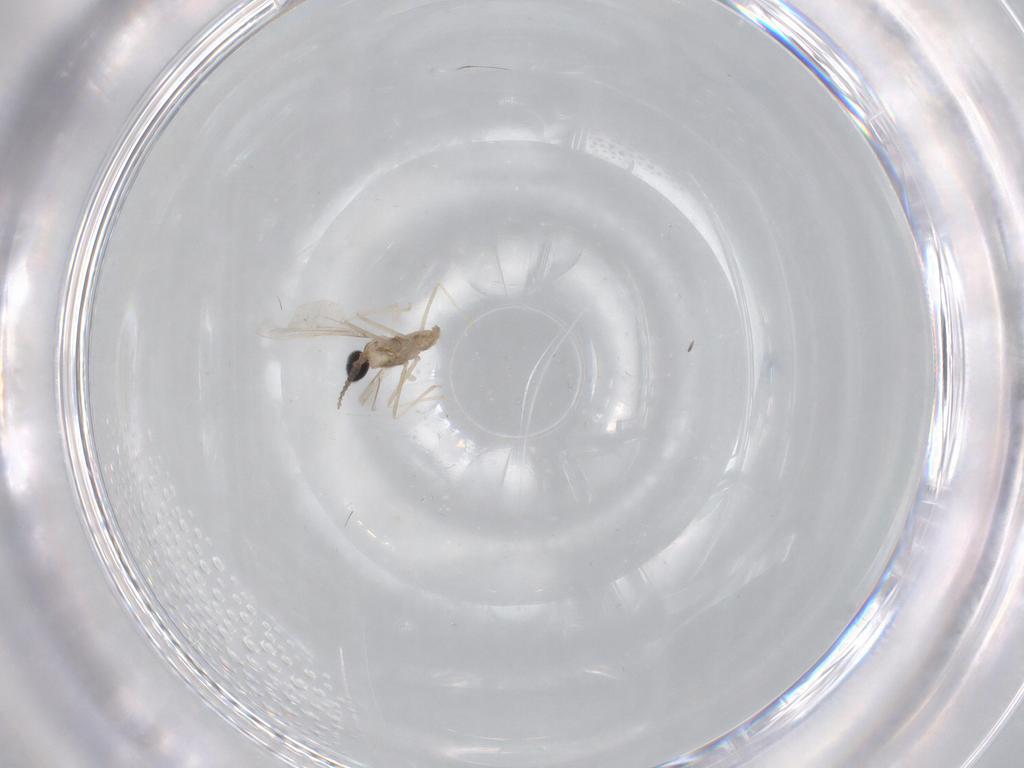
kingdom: Animalia
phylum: Arthropoda
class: Insecta
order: Diptera
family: Cecidomyiidae
